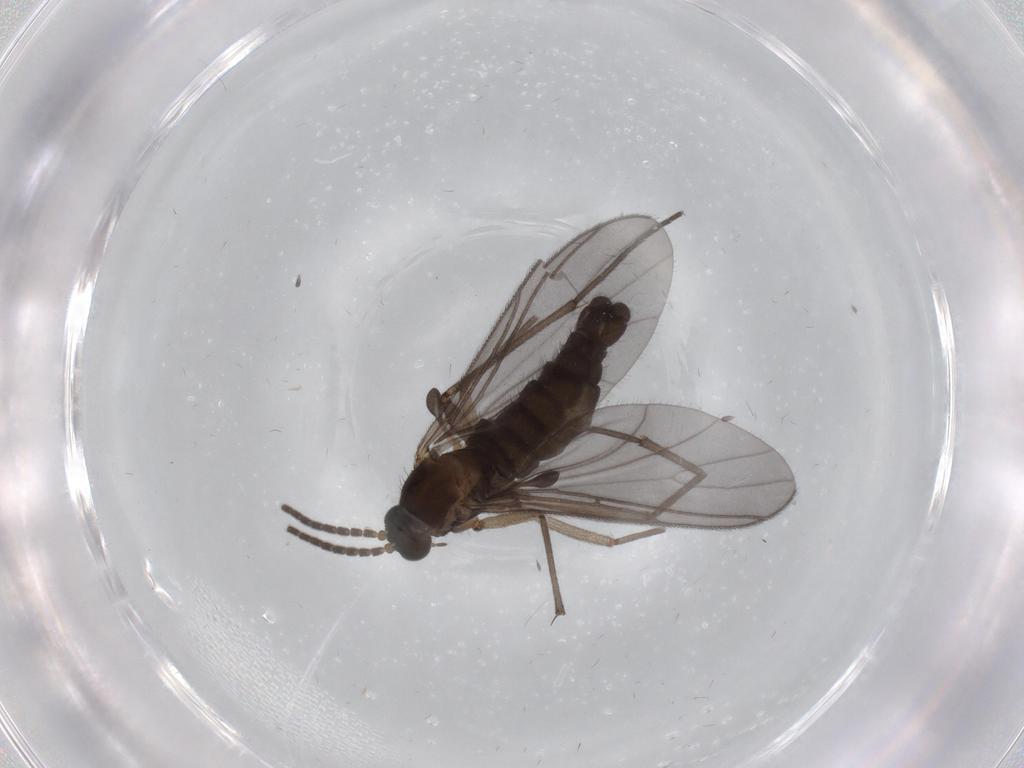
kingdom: Animalia
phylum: Arthropoda
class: Insecta
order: Diptera
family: Sciaridae
